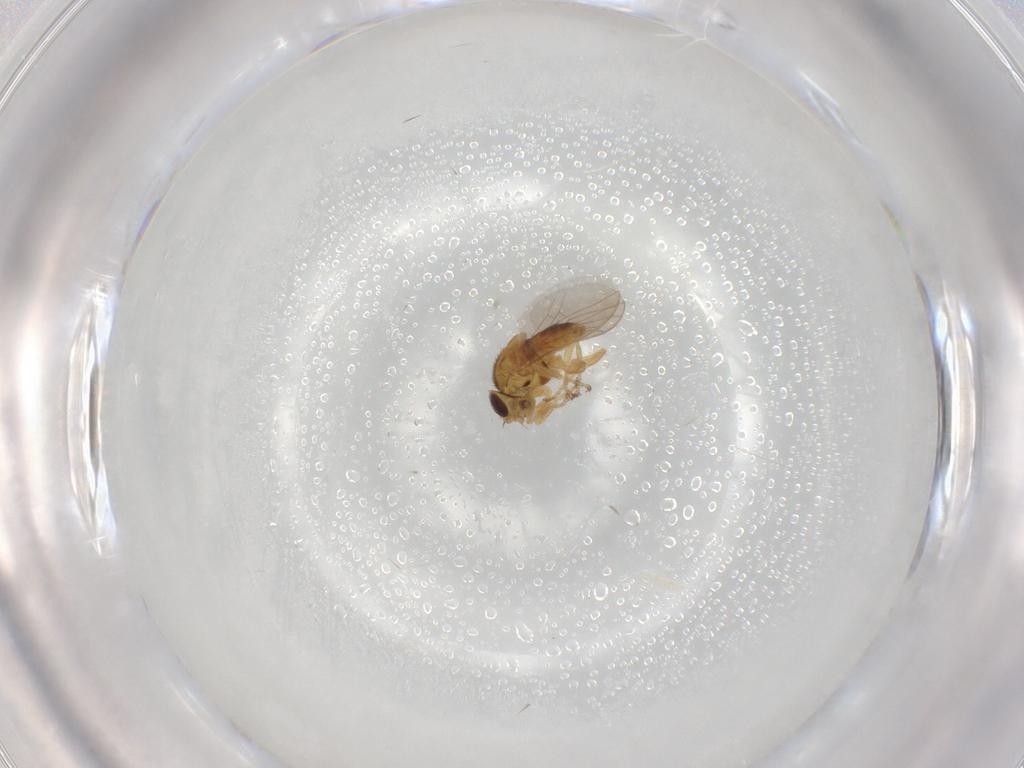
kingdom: Animalia
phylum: Arthropoda
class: Insecta
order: Diptera
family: Chloropidae
